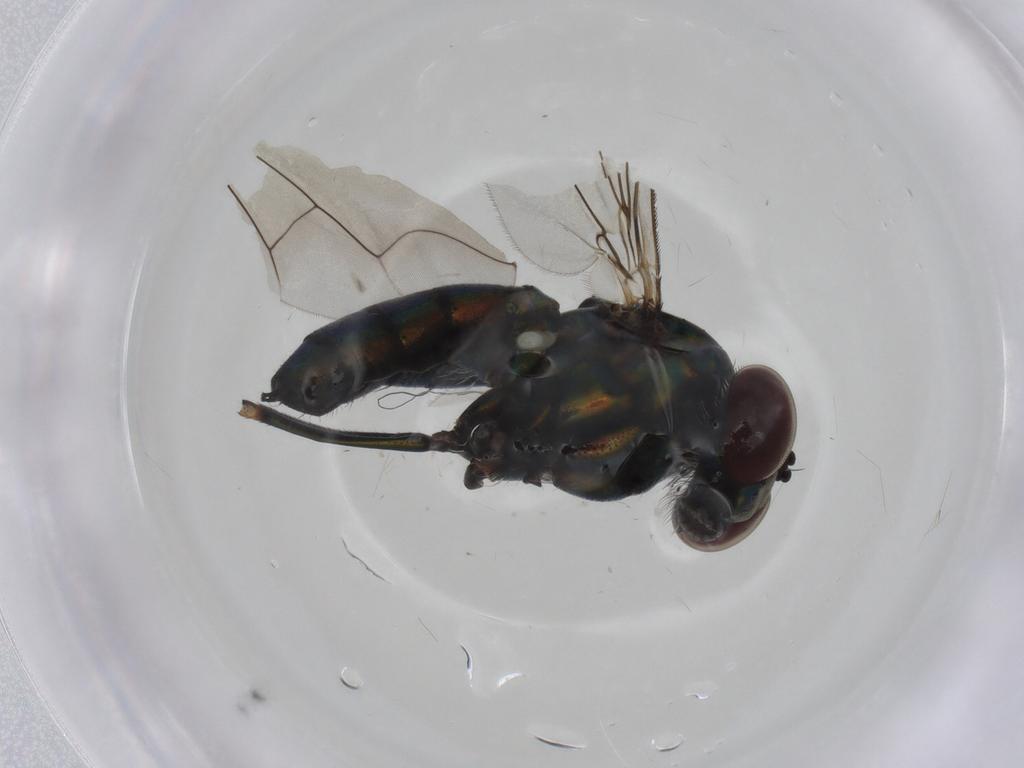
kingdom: Animalia
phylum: Arthropoda
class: Insecta
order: Diptera
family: Dolichopodidae
